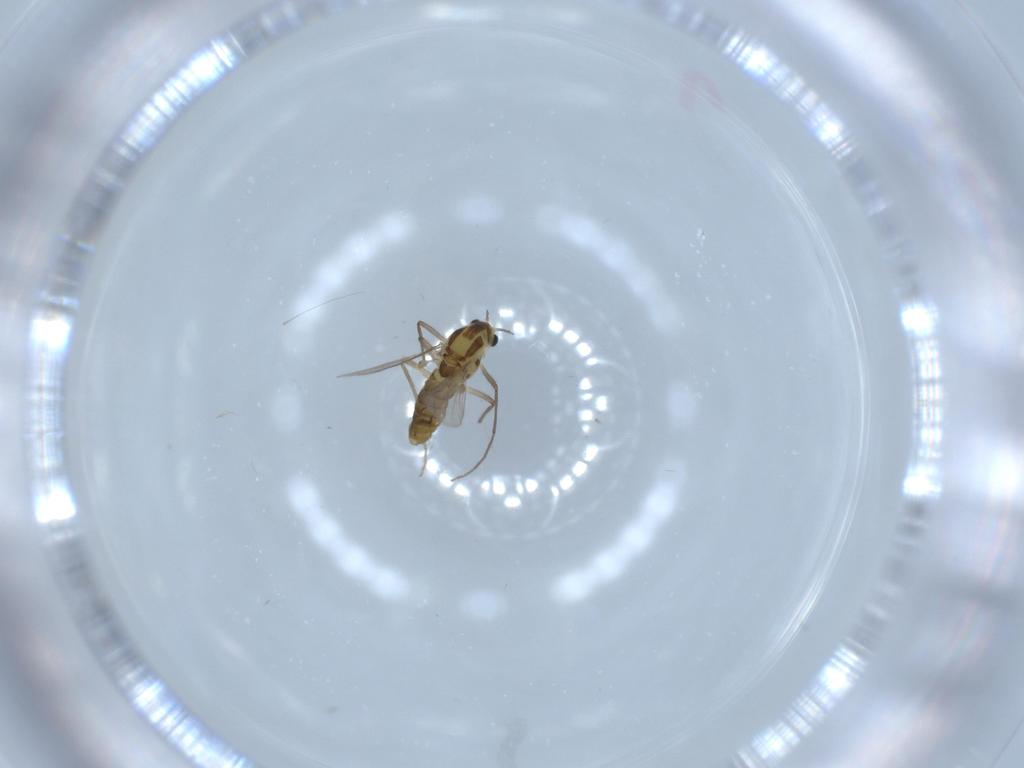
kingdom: Animalia
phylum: Arthropoda
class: Insecta
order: Diptera
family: Chironomidae
